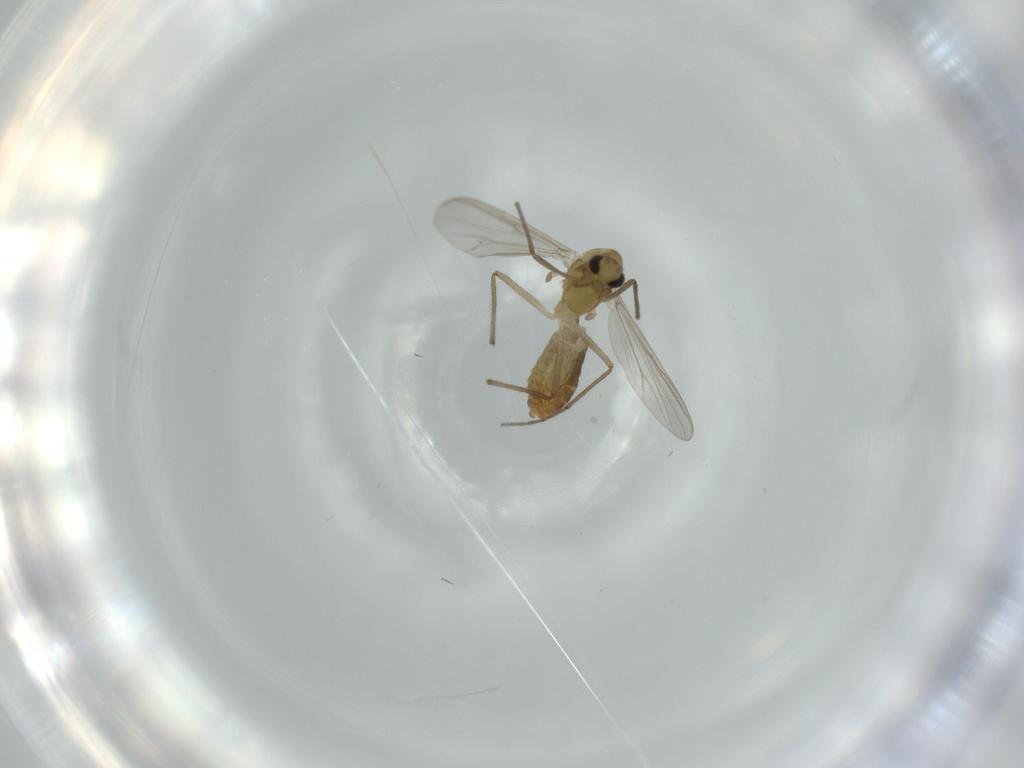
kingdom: Animalia
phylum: Arthropoda
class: Insecta
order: Diptera
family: Chironomidae
